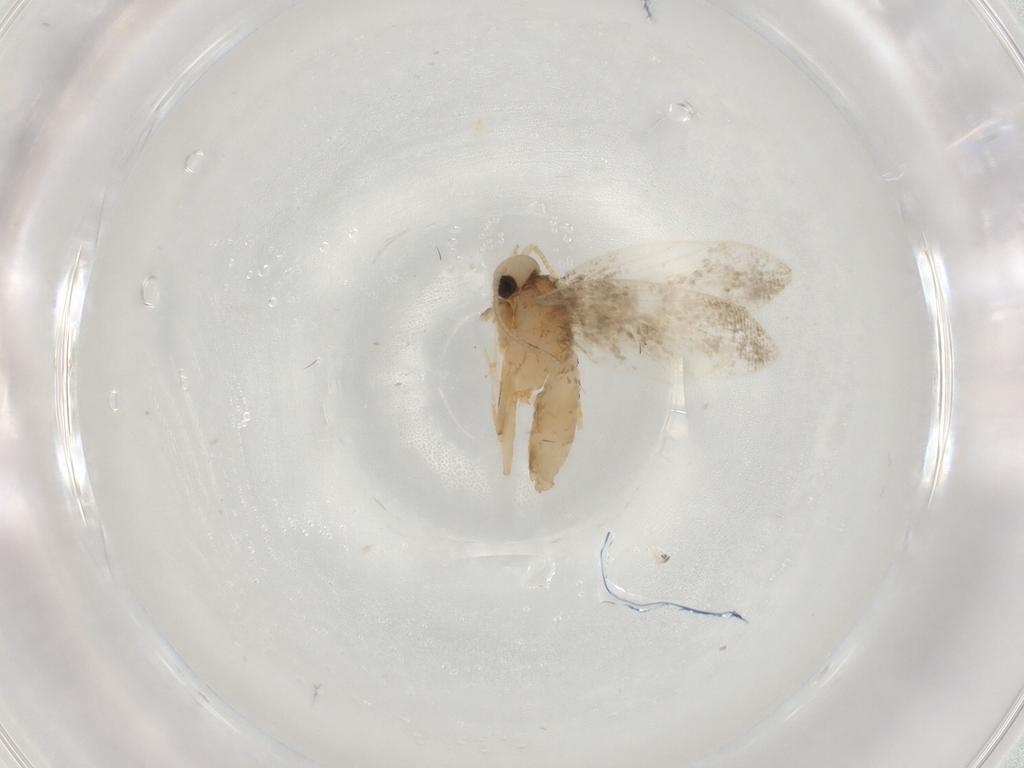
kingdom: Animalia
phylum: Arthropoda
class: Insecta
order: Lepidoptera
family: Psychidae
